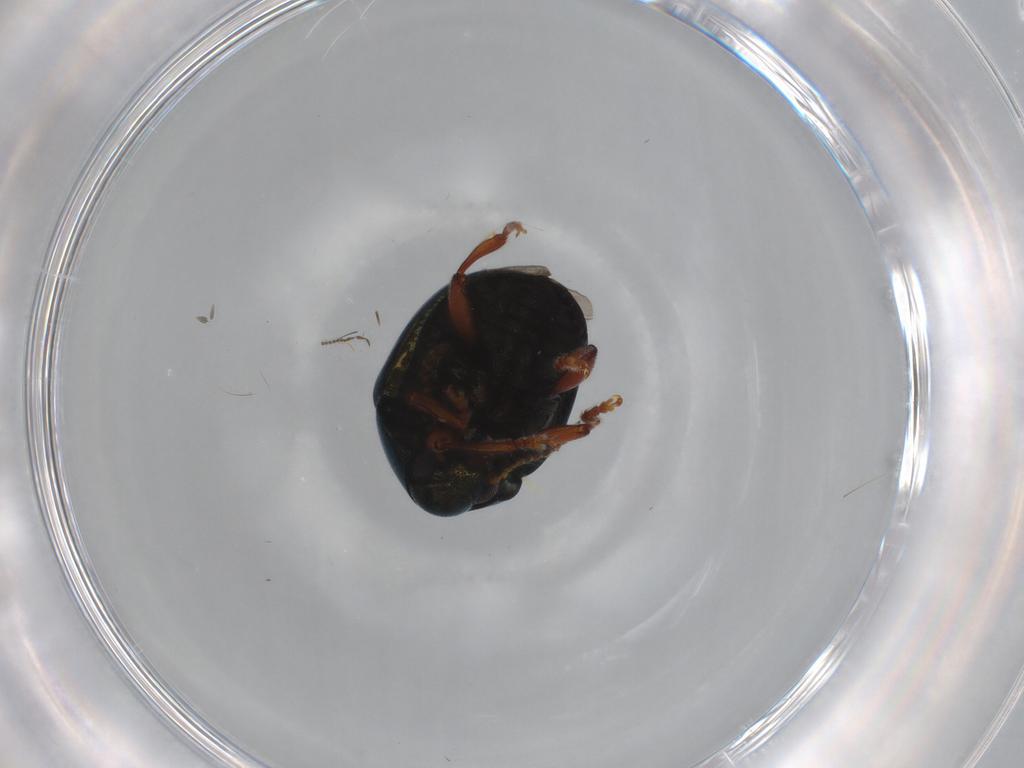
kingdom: Animalia
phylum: Arthropoda
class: Insecta
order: Coleoptera
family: Chrysomelidae
